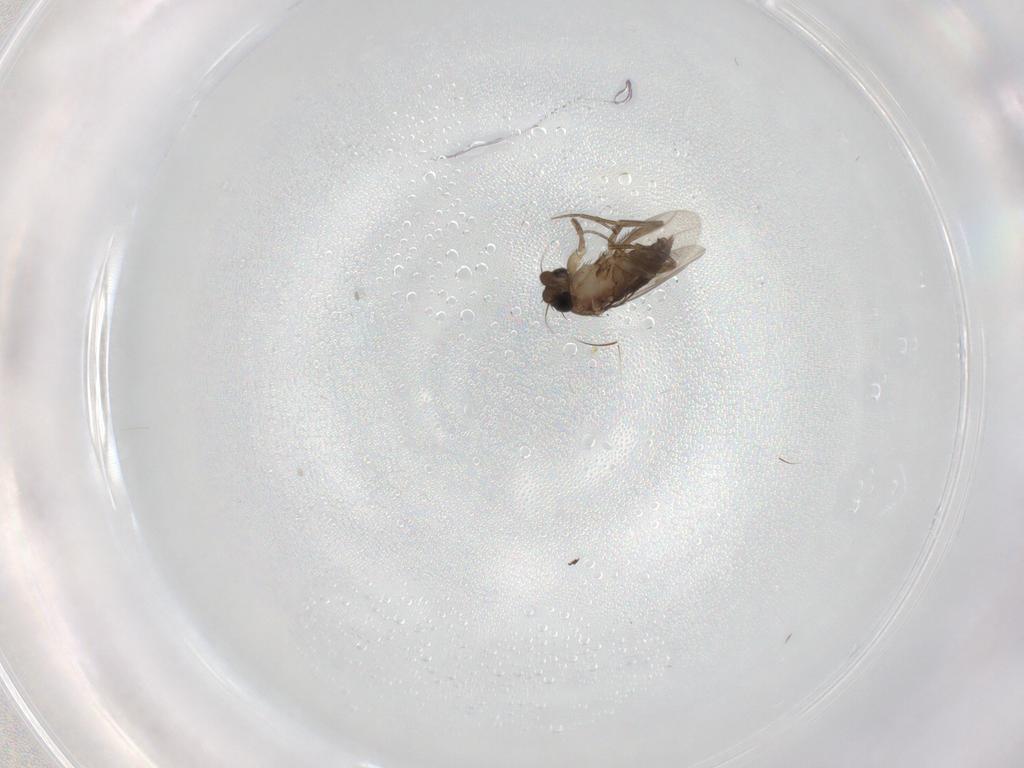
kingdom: Animalia
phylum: Arthropoda
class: Insecta
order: Diptera
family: Phoridae
